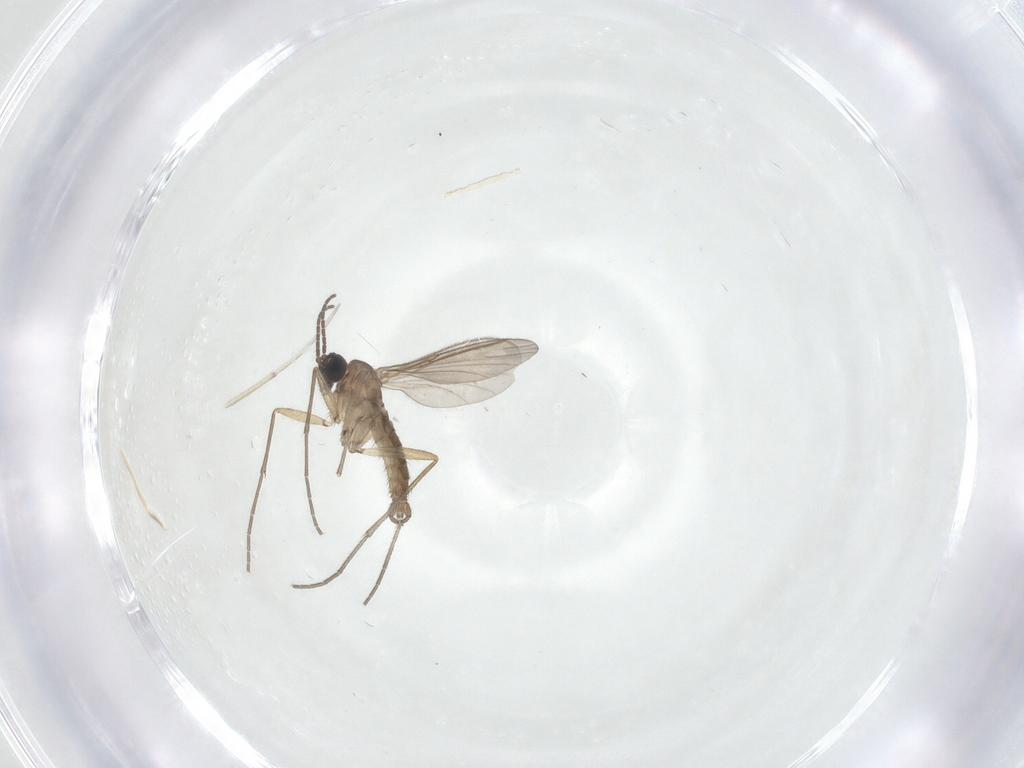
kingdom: Animalia
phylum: Arthropoda
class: Insecta
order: Diptera
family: Sciaridae
